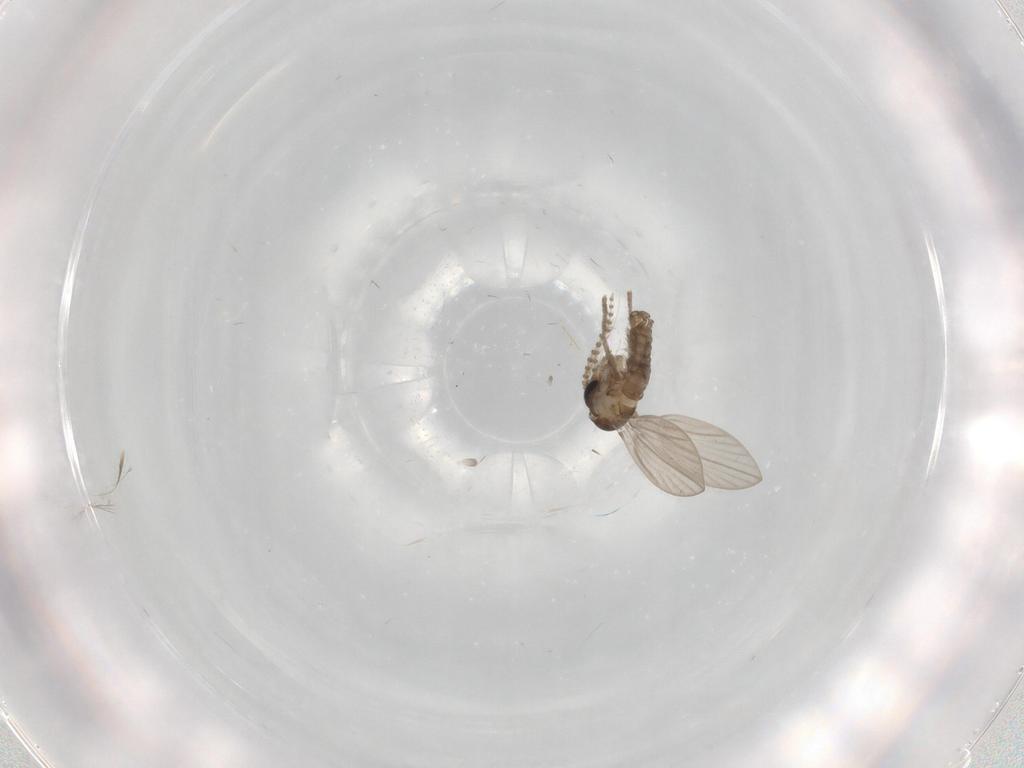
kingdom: Animalia
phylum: Arthropoda
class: Insecta
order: Diptera
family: Psychodidae
